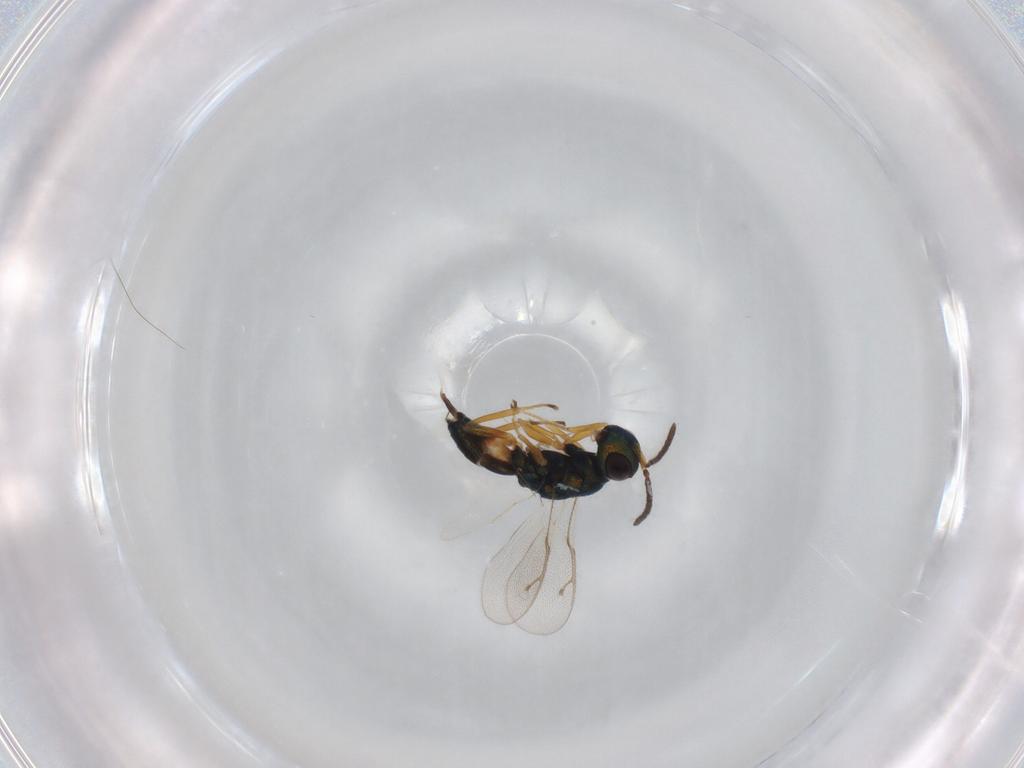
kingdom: Animalia
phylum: Arthropoda
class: Insecta
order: Hymenoptera
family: Pteromalidae
